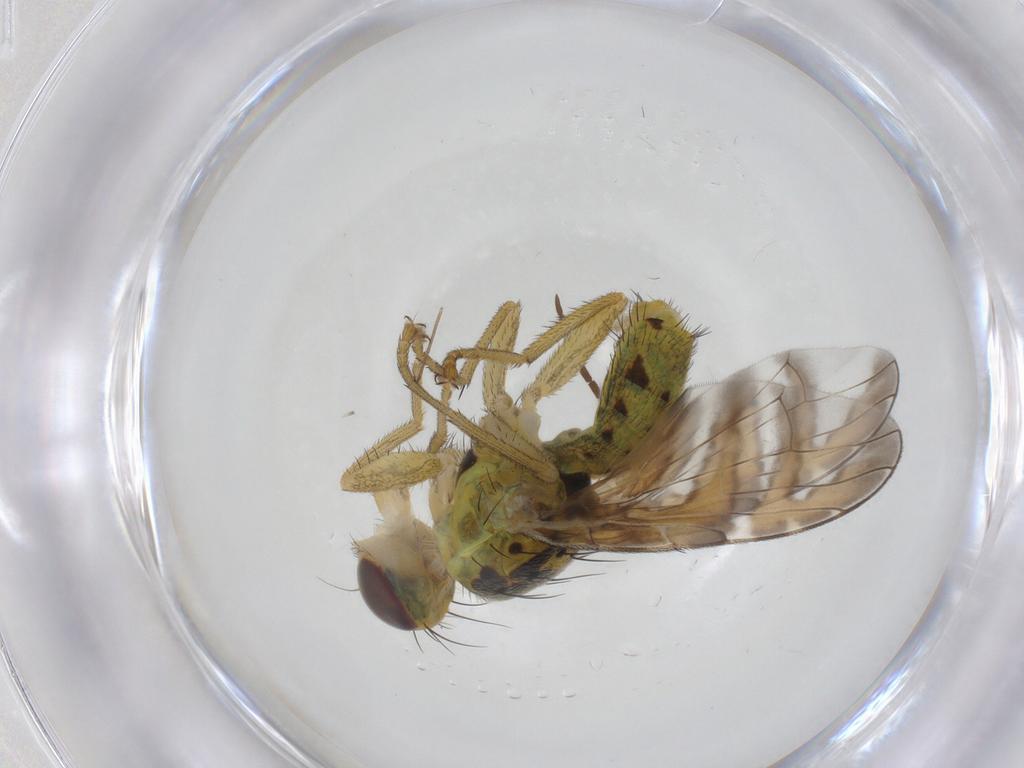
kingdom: Animalia
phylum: Arthropoda
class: Insecta
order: Diptera
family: Tephritidae
